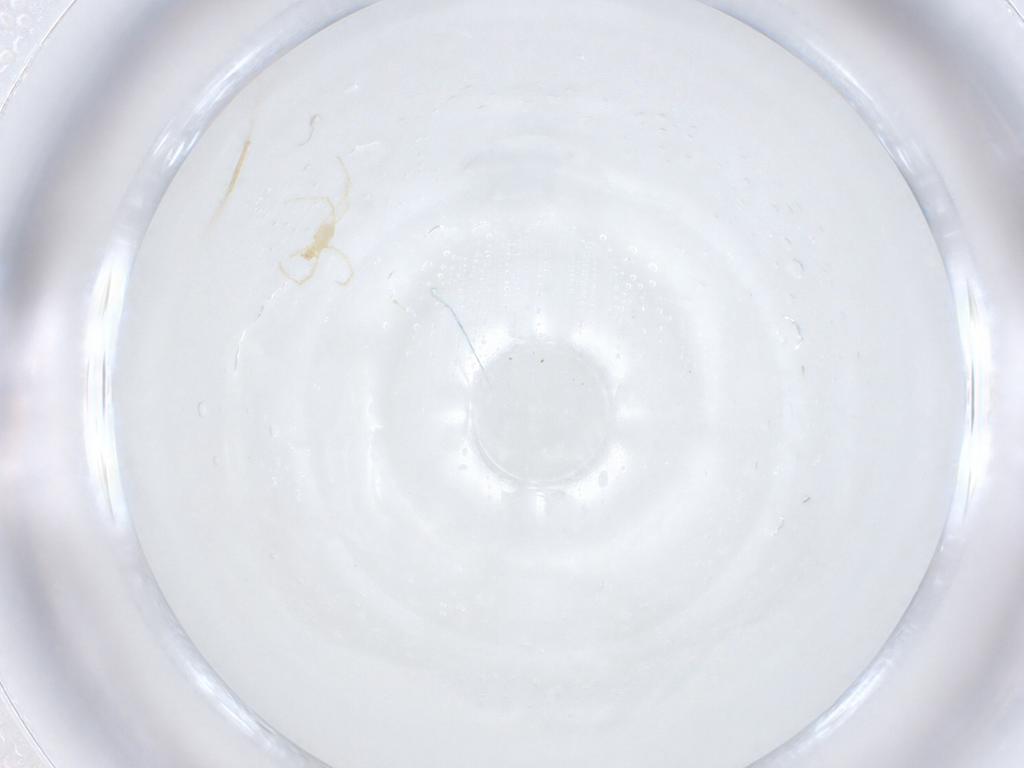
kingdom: Animalia
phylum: Arthropoda
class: Arachnida
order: Trombidiformes
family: Erythraeidae
